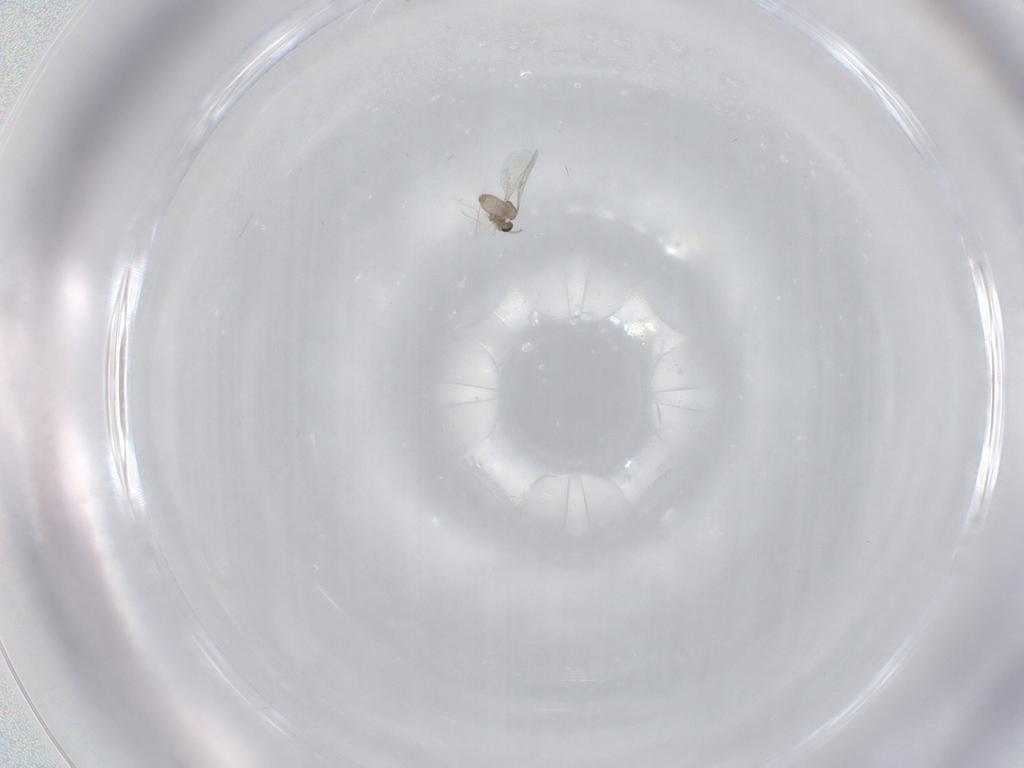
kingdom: Animalia
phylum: Arthropoda
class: Insecta
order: Diptera
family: Cecidomyiidae
